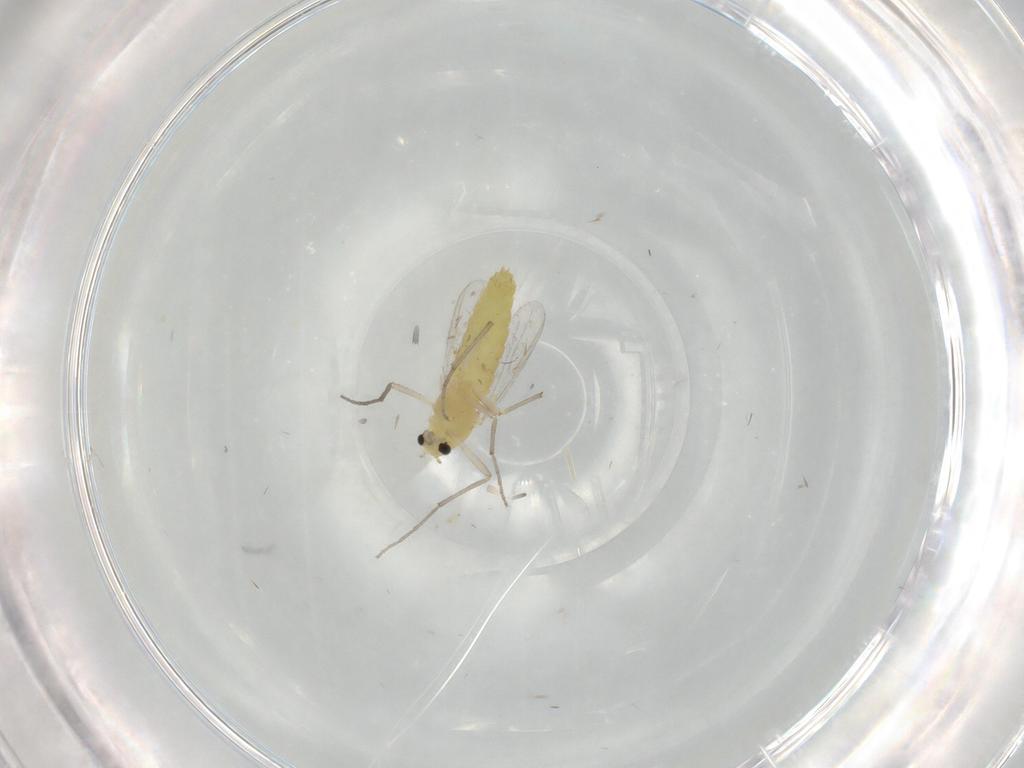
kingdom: Animalia
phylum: Arthropoda
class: Insecta
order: Diptera
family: Chironomidae
